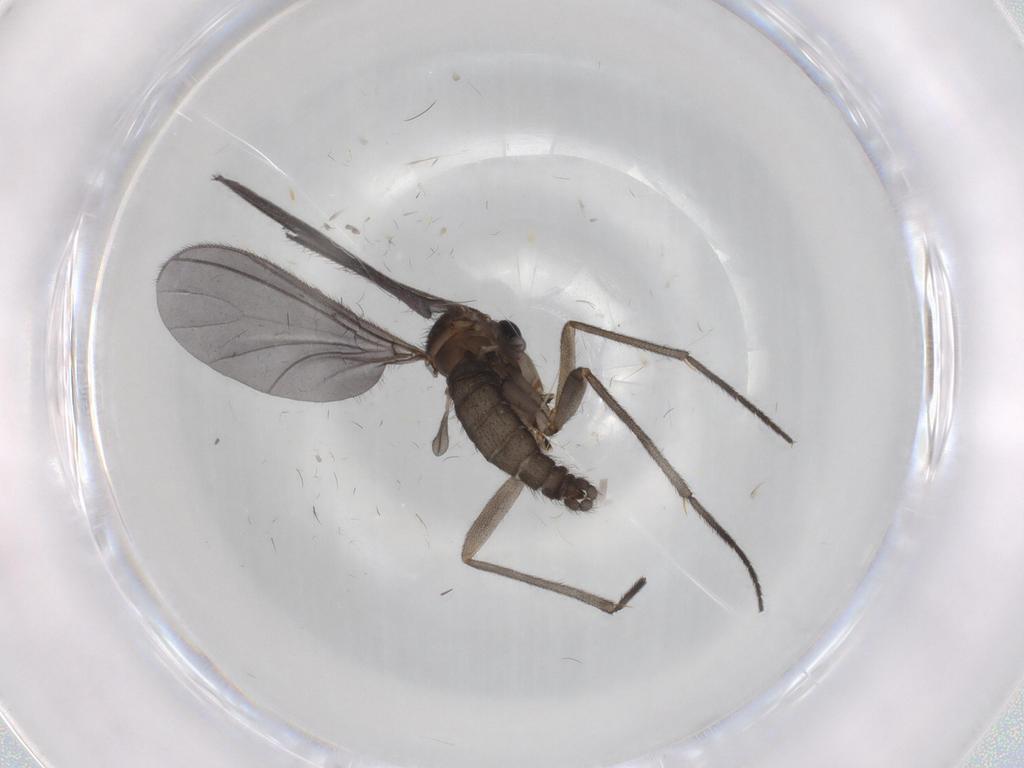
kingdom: Animalia
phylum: Arthropoda
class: Insecta
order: Diptera
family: Sciaridae
